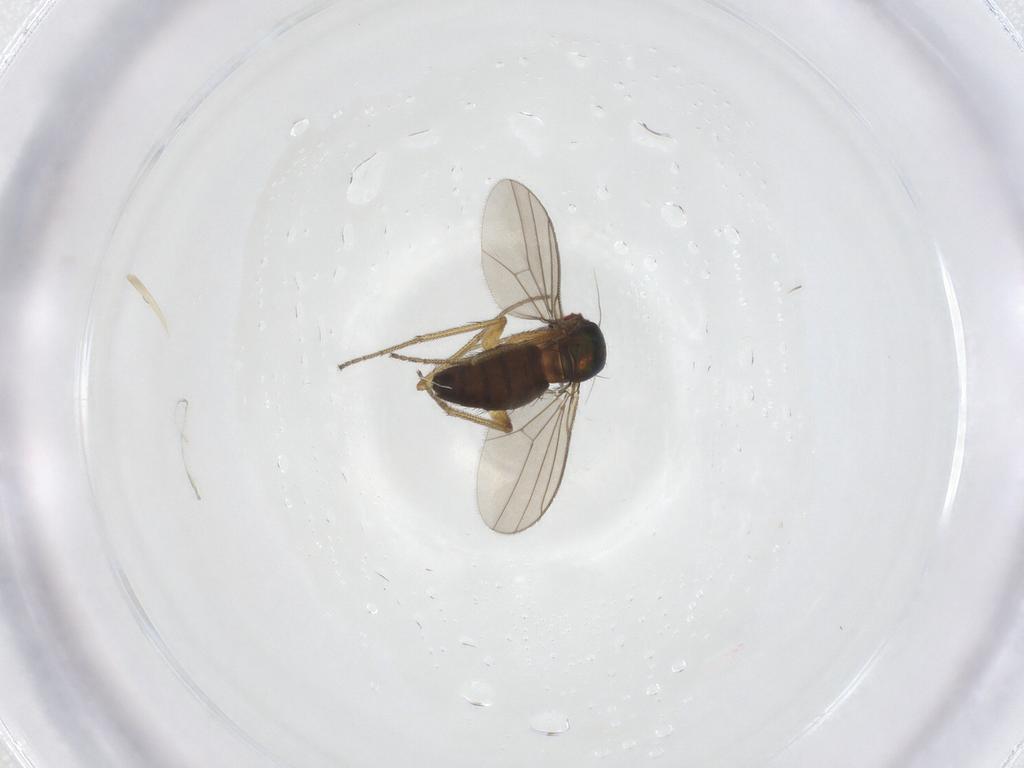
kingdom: Animalia
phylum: Arthropoda
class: Insecta
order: Diptera
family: Dolichopodidae
